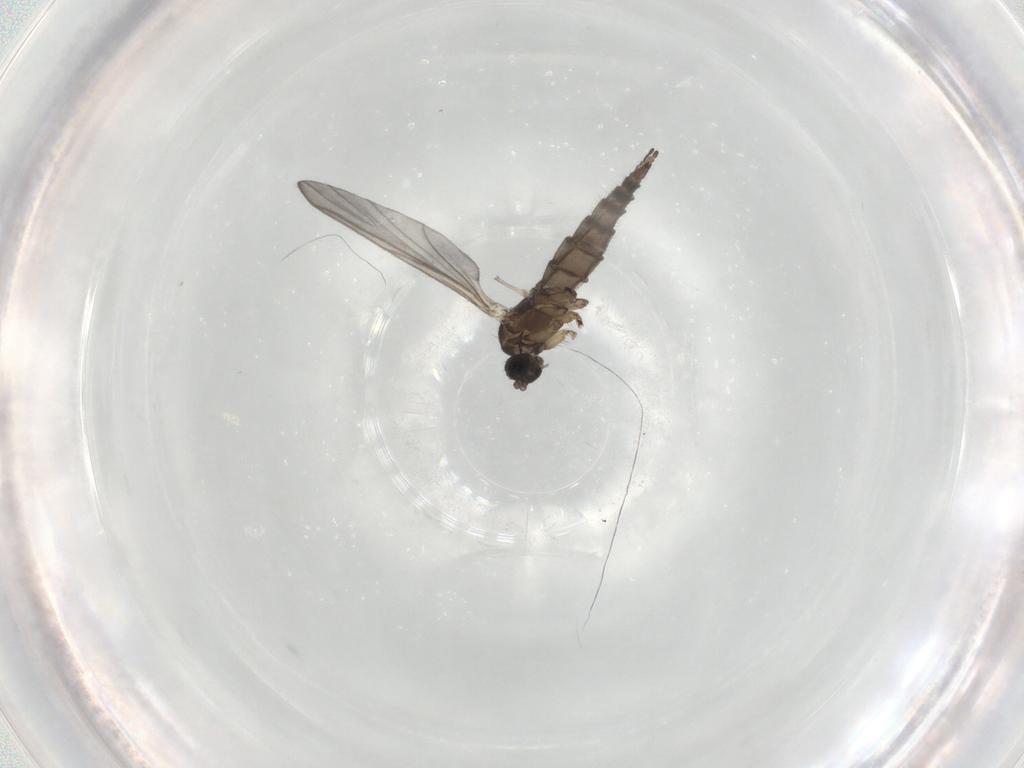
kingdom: Animalia
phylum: Arthropoda
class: Insecta
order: Diptera
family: Sciaridae
